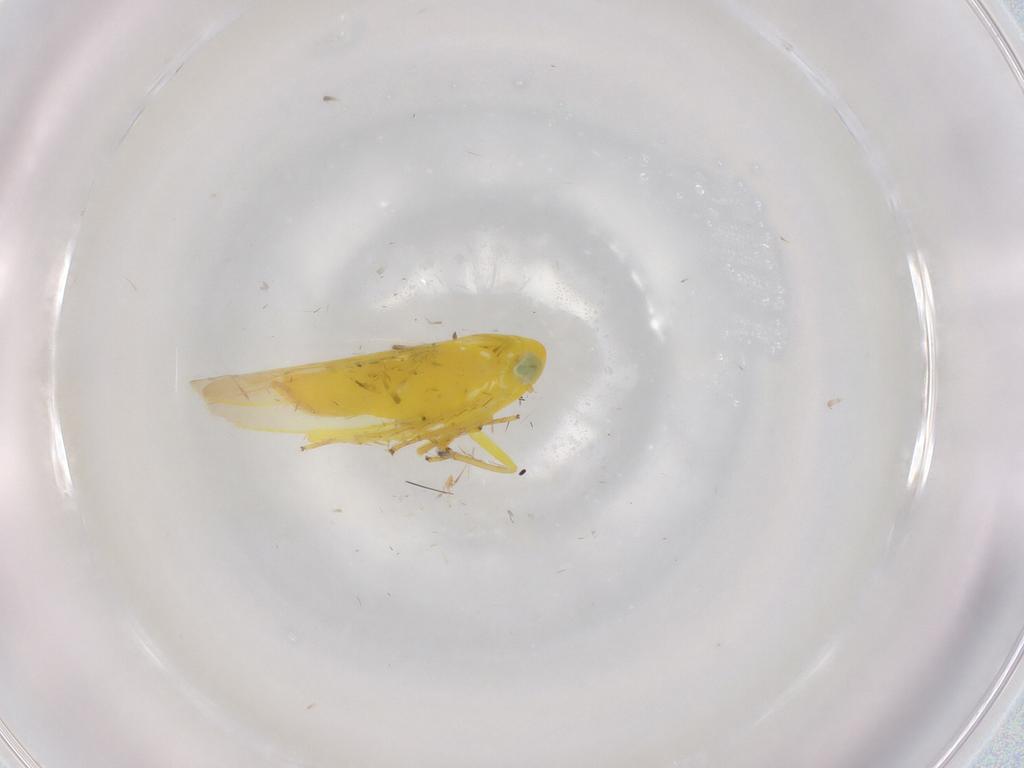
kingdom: Animalia
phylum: Arthropoda
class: Insecta
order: Hemiptera
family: Cicadellidae
